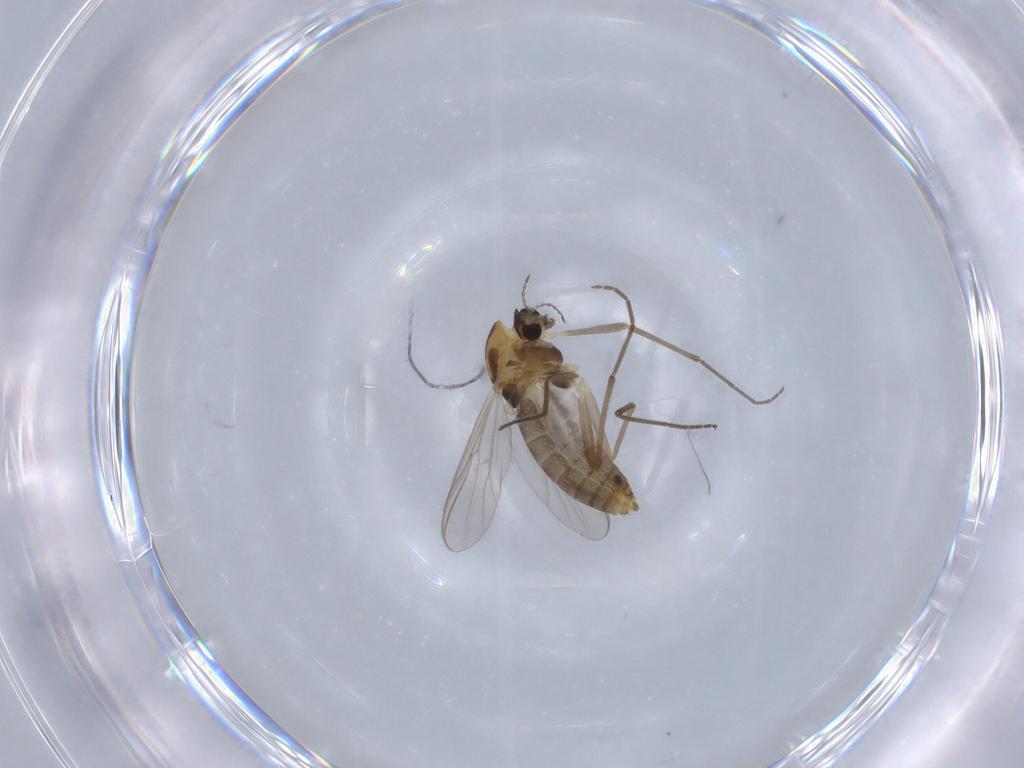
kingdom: Animalia
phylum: Arthropoda
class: Insecta
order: Diptera
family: Chironomidae
